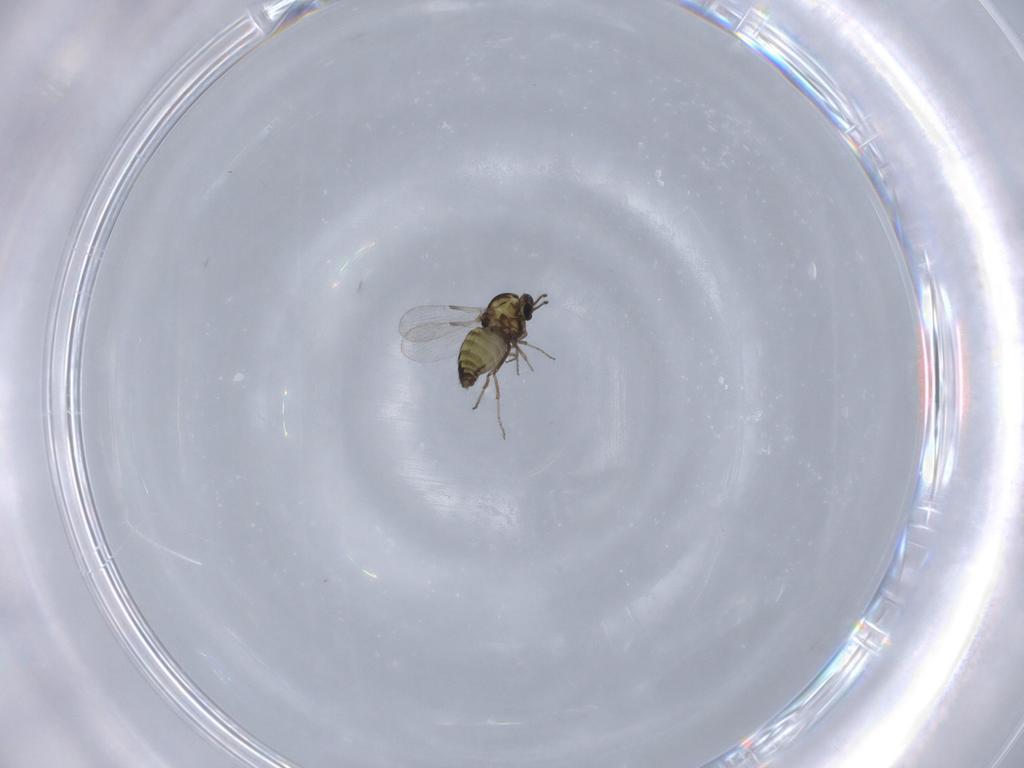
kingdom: Animalia
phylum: Arthropoda
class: Insecta
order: Diptera
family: Ceratopogonidae
